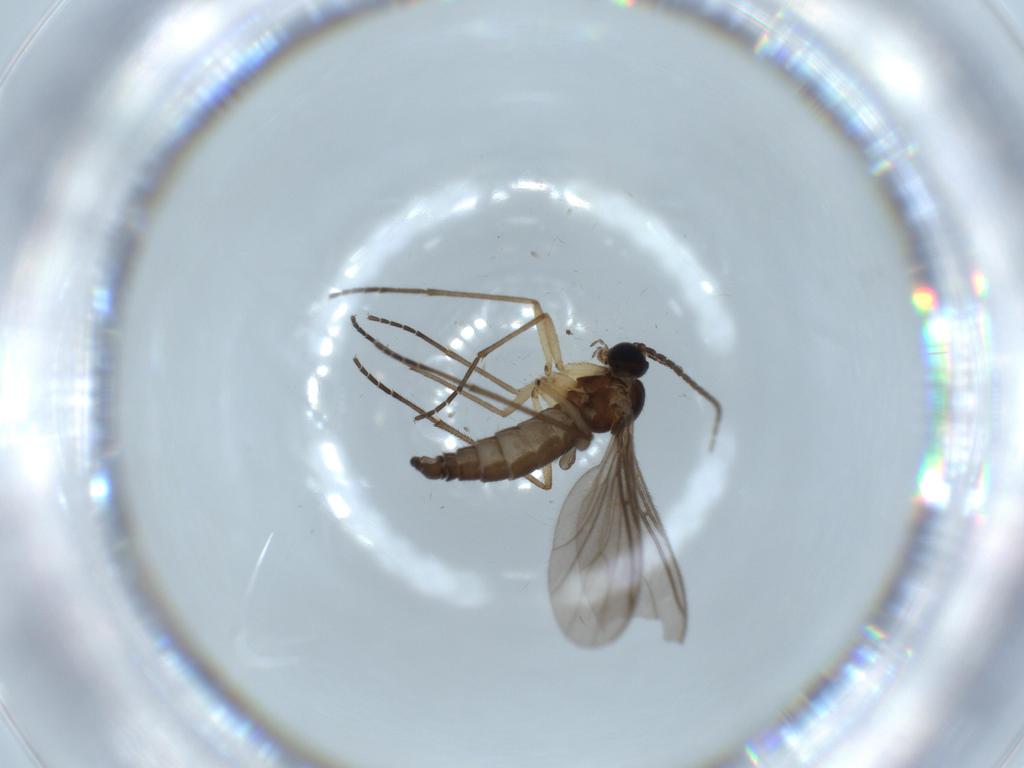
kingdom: Animalia
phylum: Arthropoda
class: Insecta
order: Diptera
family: Sciaridae
